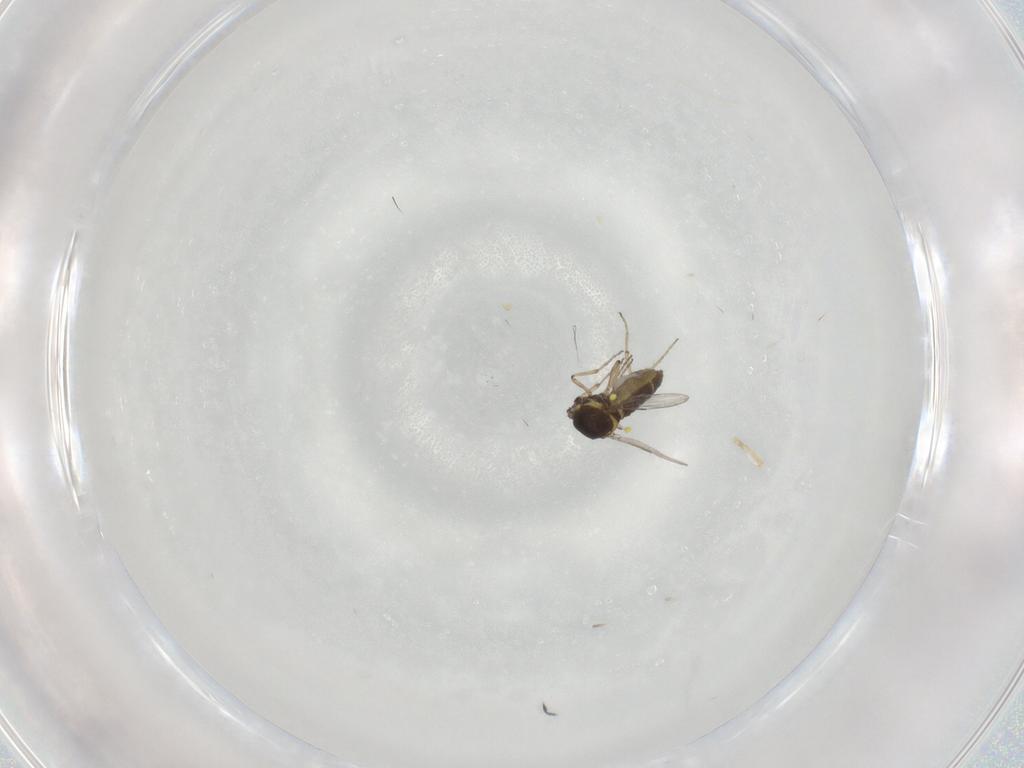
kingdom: Animalia
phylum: Arthropoda
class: Insecta
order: Diptera
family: Ceratopogonidae
